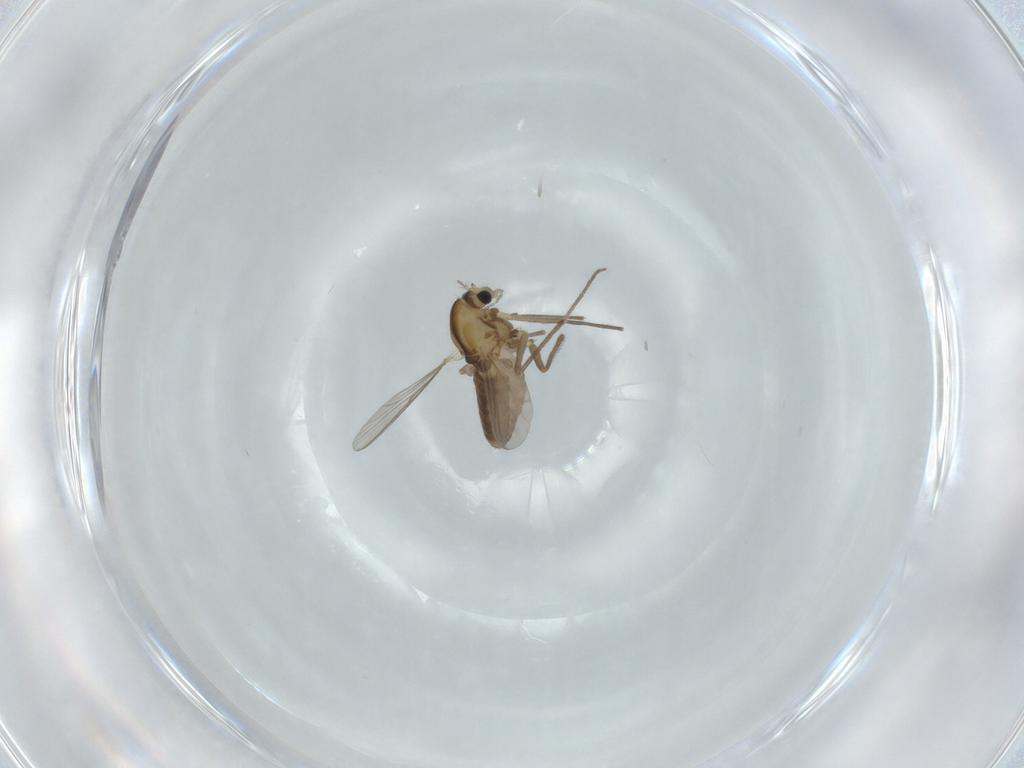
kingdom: Animalia
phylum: Arthropoda
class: Insecta
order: Diptera
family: Chironomidae
